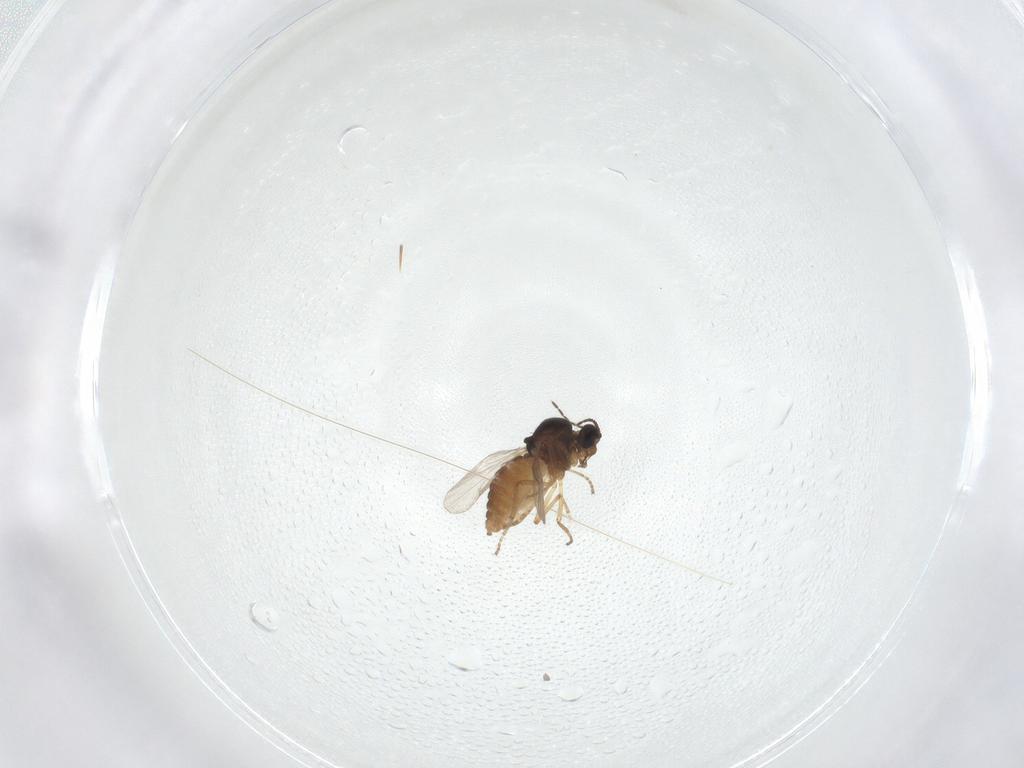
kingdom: Animalia
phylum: Arthropoda
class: Insecta
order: Diptera
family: Ceratopogonidae
